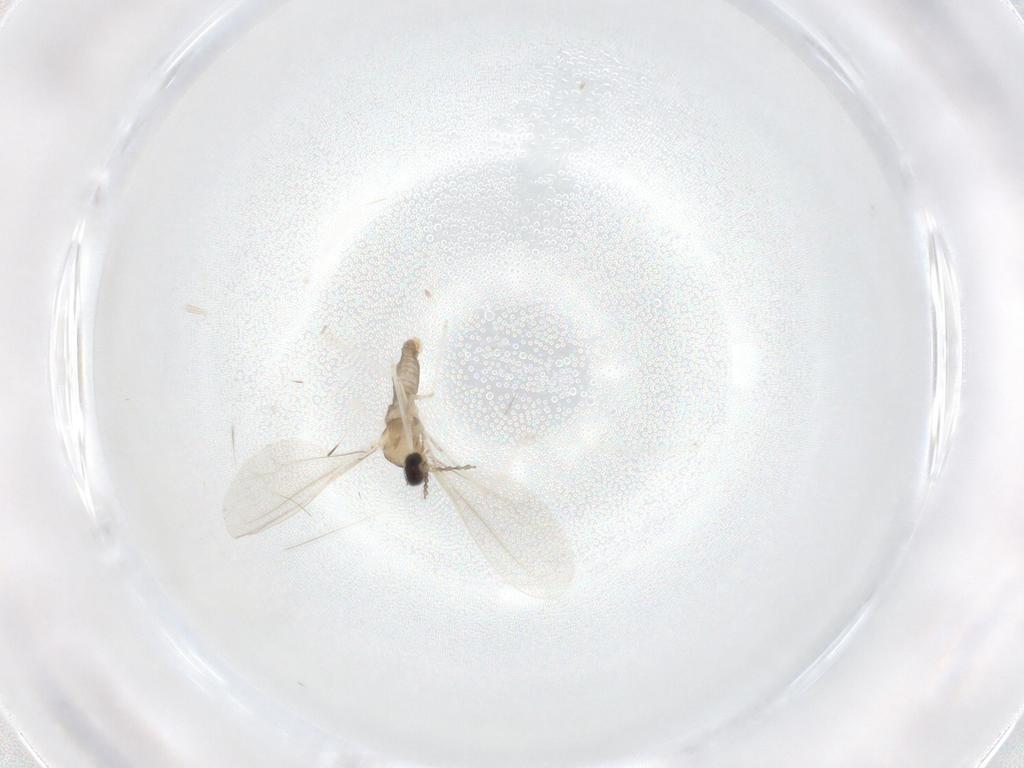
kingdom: Animalia
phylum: Arthropoda
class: Insecta
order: Diptera
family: Cecidomyiidae
